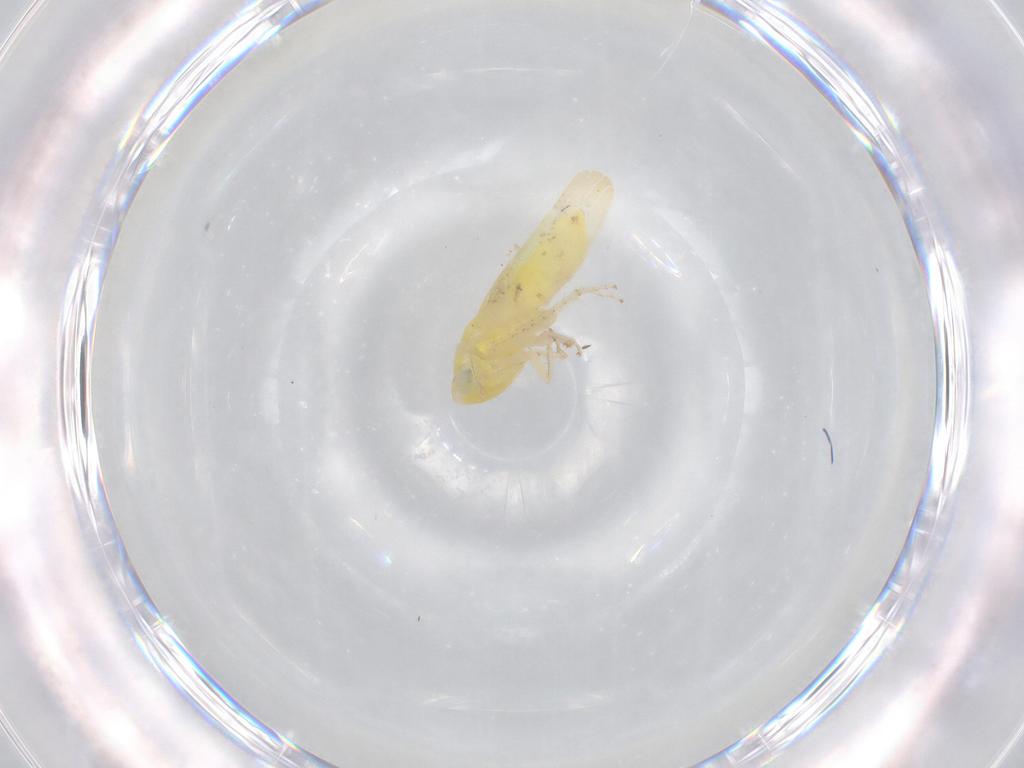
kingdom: Animalia
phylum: Arthropoda
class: Insecta
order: Hemiptera
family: Cicadellidae
